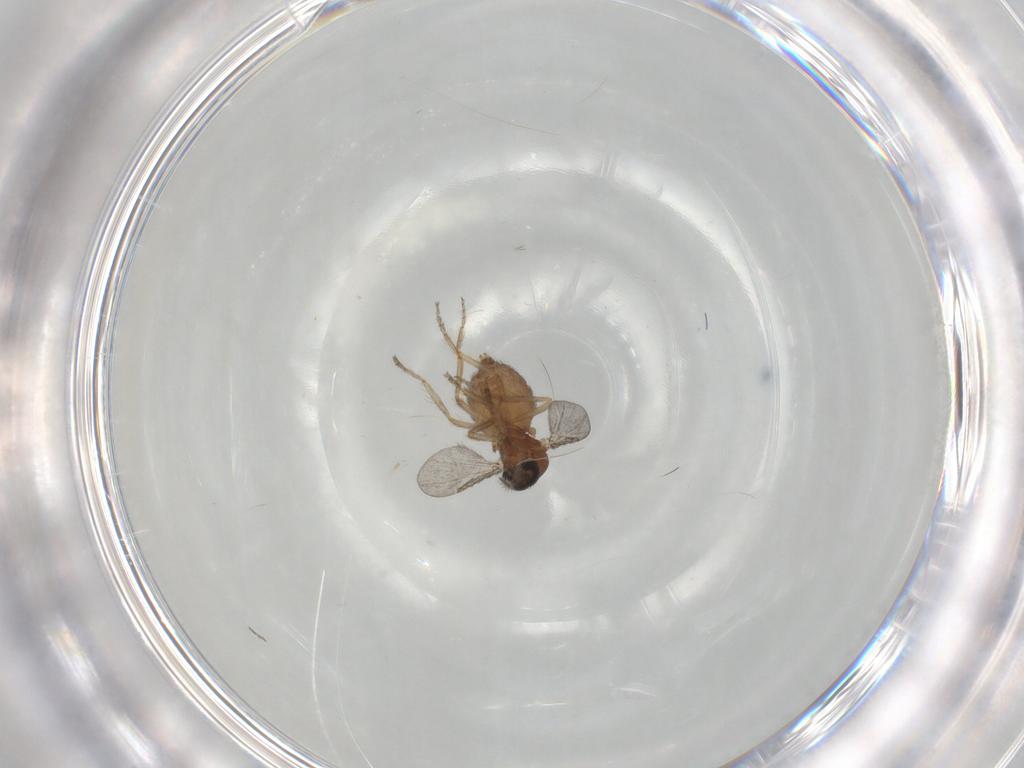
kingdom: Animalia
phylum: Arthropoda
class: Insecta
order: Diptera
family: Ceratopogonidae
